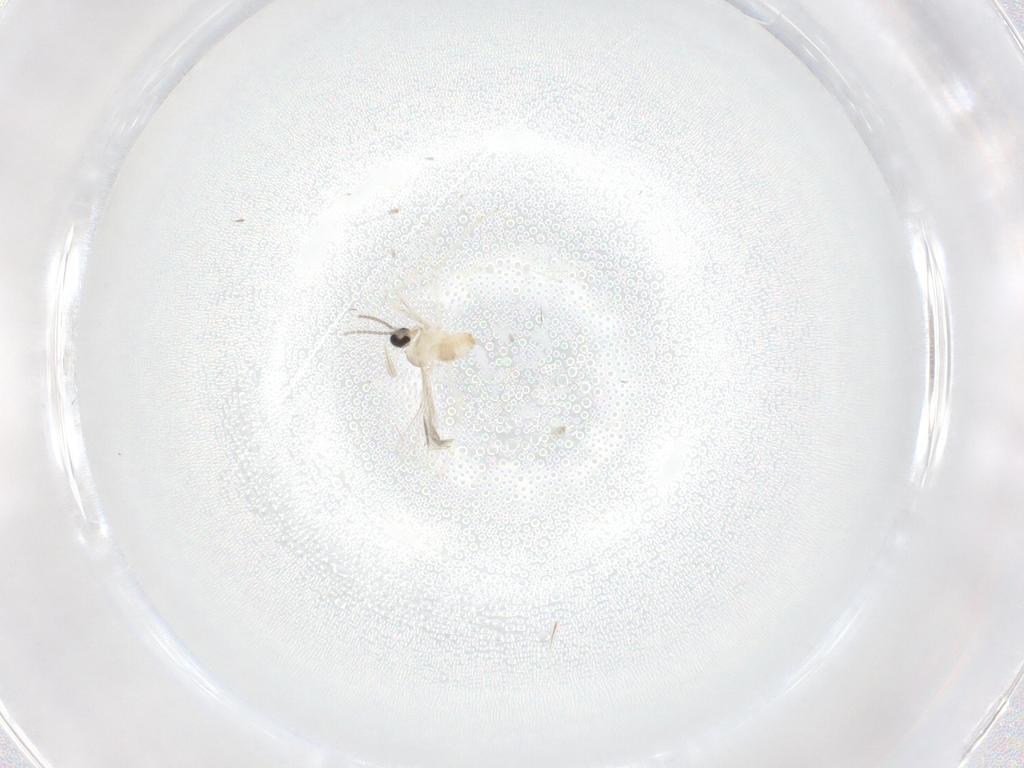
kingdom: Animalia
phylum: Arthropoda
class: Insecta
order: Diptera
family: Cecidomyiidae
